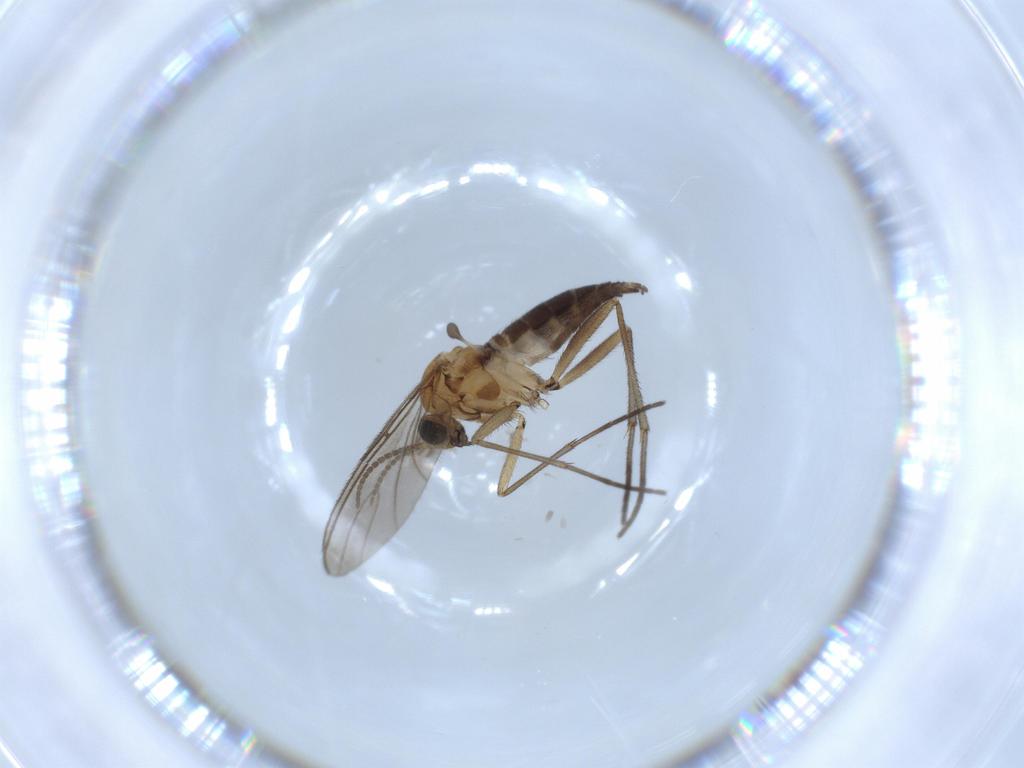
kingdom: Animalia
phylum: Arthropoda
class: Insecta
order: Diptera
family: Sciaridae
